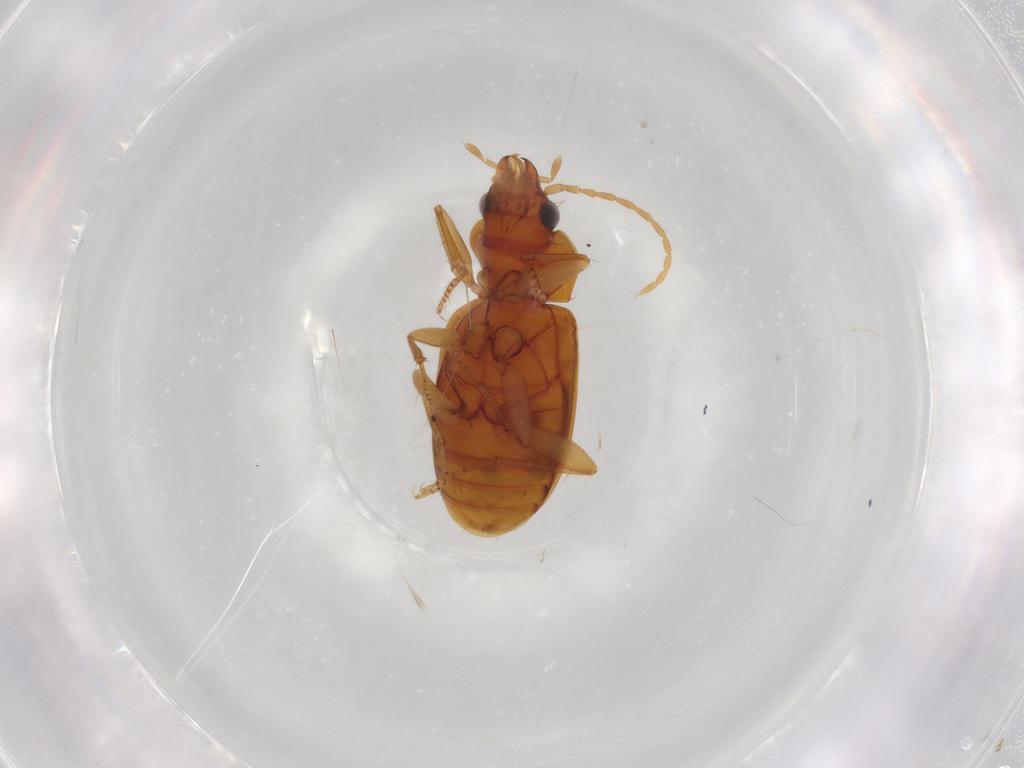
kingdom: Animalia
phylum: Arthropoda
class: Insecta
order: Coleoptera
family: Carabidae
